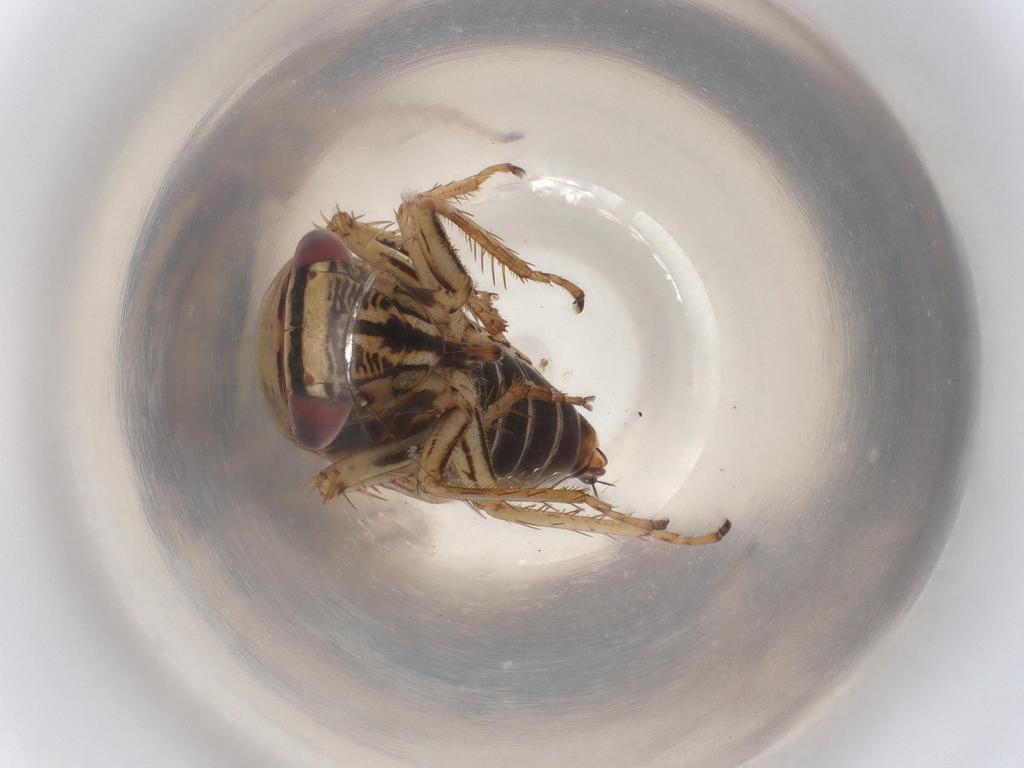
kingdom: Animalia
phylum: Arthropoda
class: Insecta
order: Hemiptera
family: Cicadellidae
